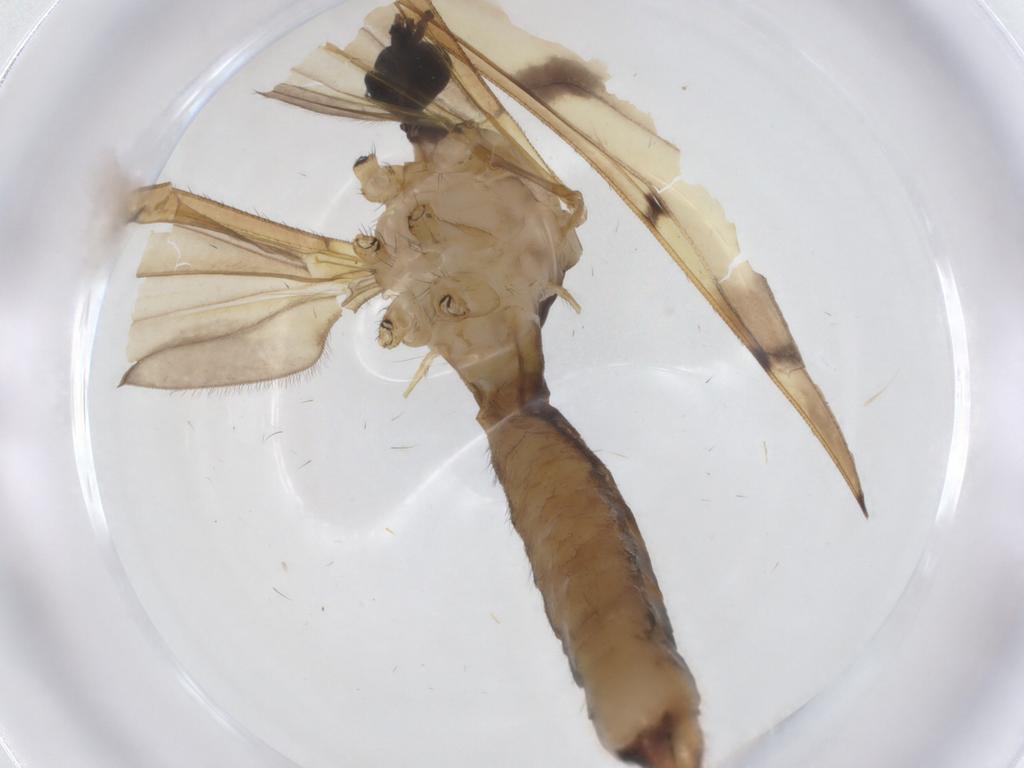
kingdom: Animalia
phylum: Arthropoda
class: Insecta
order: Diptera
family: Limoniidae
